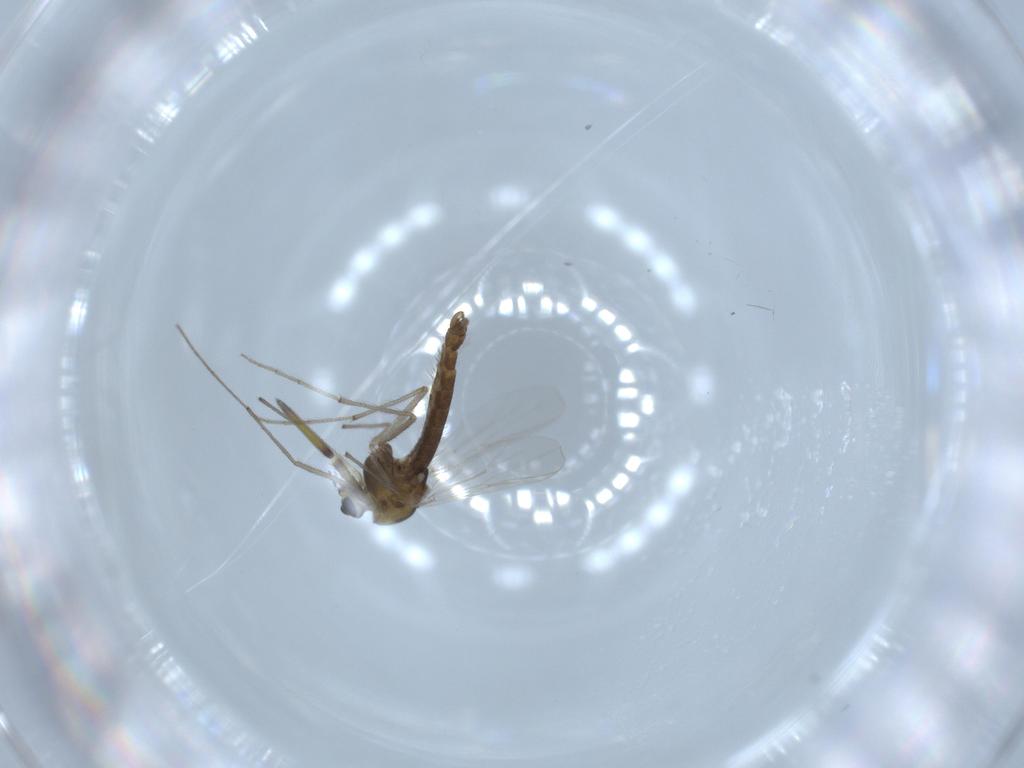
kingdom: Animalia
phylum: Arthropoda
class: Insecta
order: Diptera
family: Chironomidae
